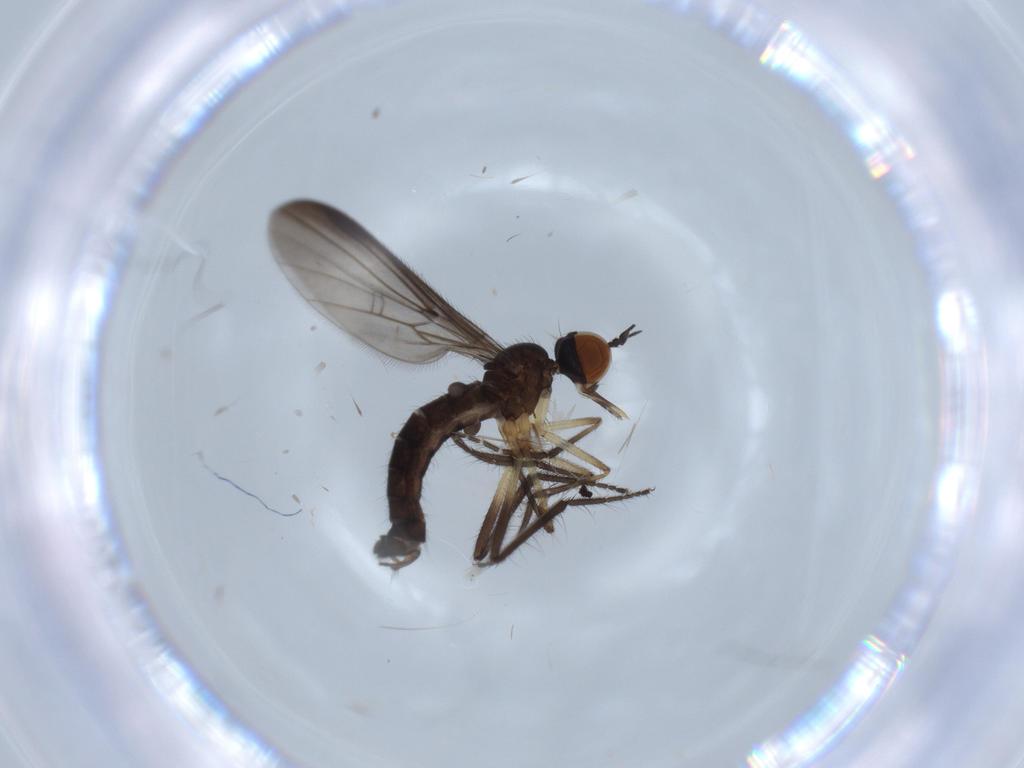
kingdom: Animalia
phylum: Arthropoda
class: Insecta
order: Diptera
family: Empididae
